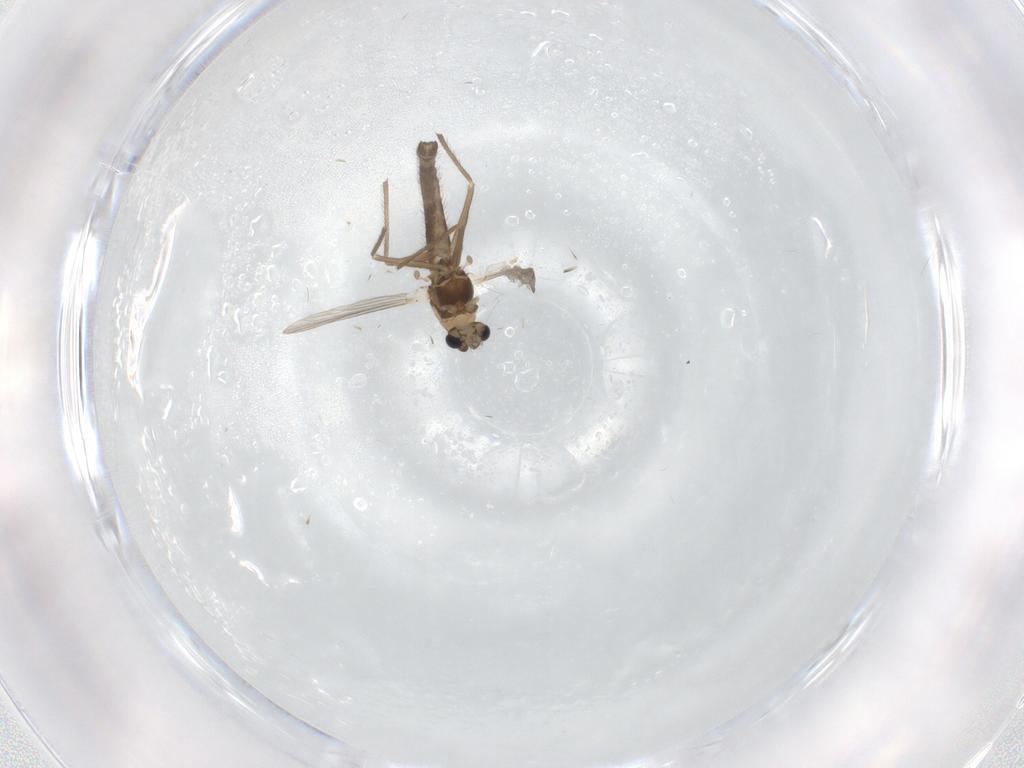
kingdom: Animalia
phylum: Arthropoda
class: Insecta
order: Diptera
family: Chironomidae
